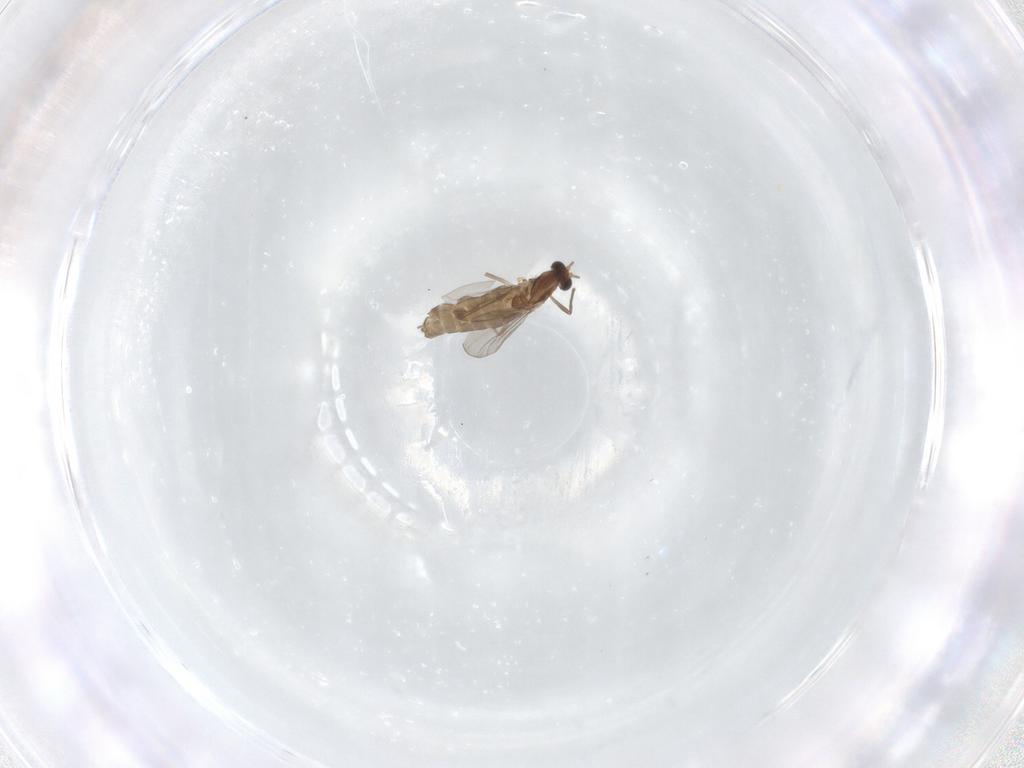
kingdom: Animalia
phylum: Arthropoda
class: Insecta
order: Diptera
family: Chironomidae
